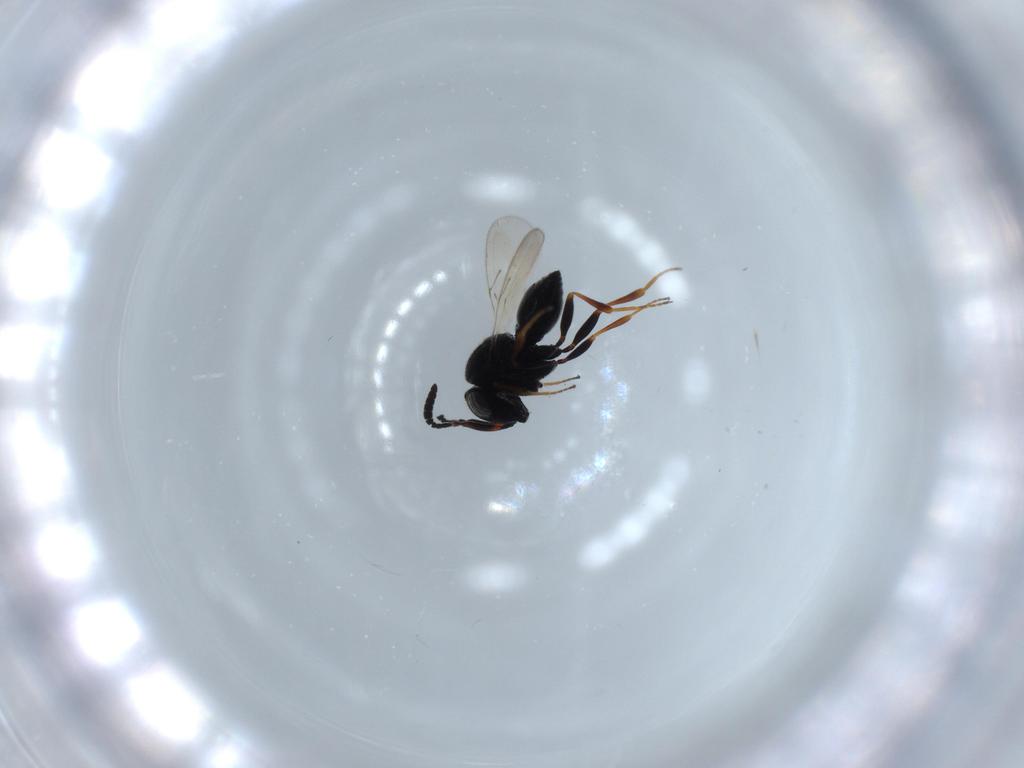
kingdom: Animalia
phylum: Arthropoda
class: Insecta
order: Hymenoptera
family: Scelionidae
